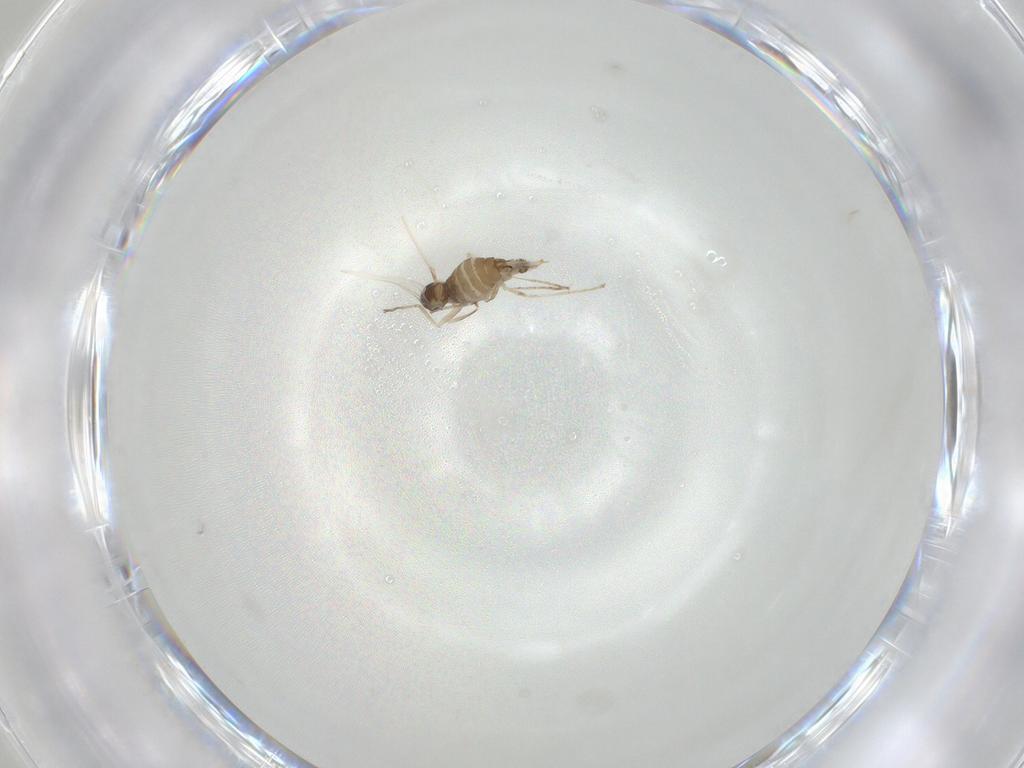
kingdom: Animalia
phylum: Arthropoda
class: Insecta
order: Diptera
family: Cecidomyiidae
